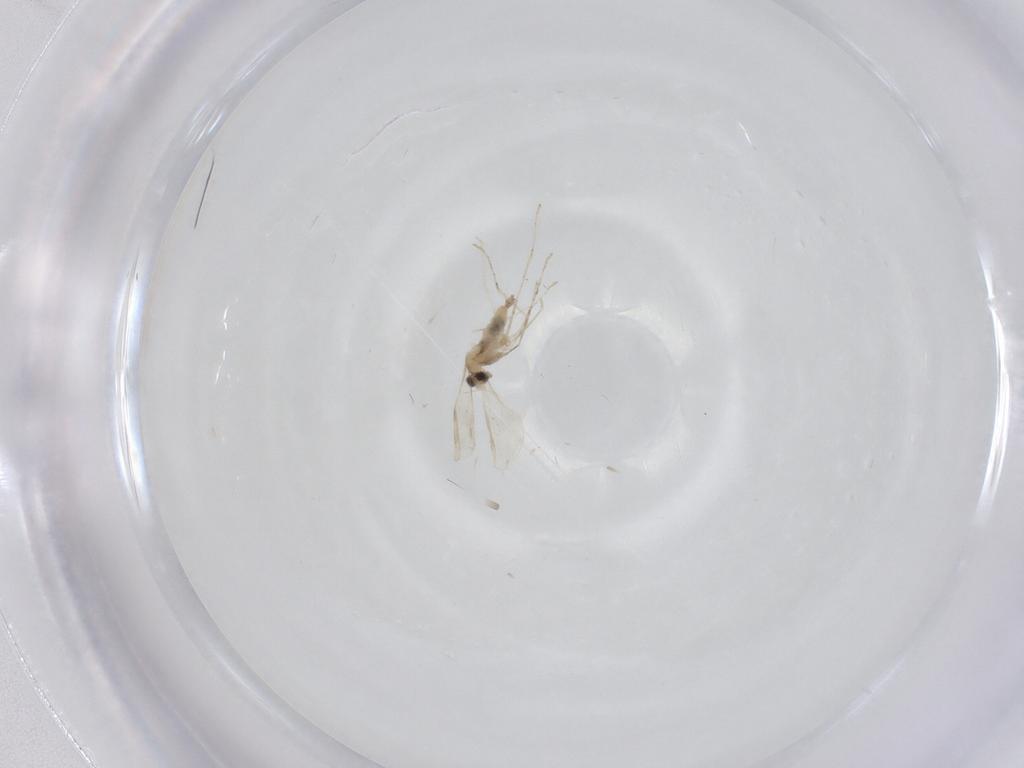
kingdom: Animalia
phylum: Arthropoda
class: Insecta
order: Diptera
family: Cecidomyiidae
